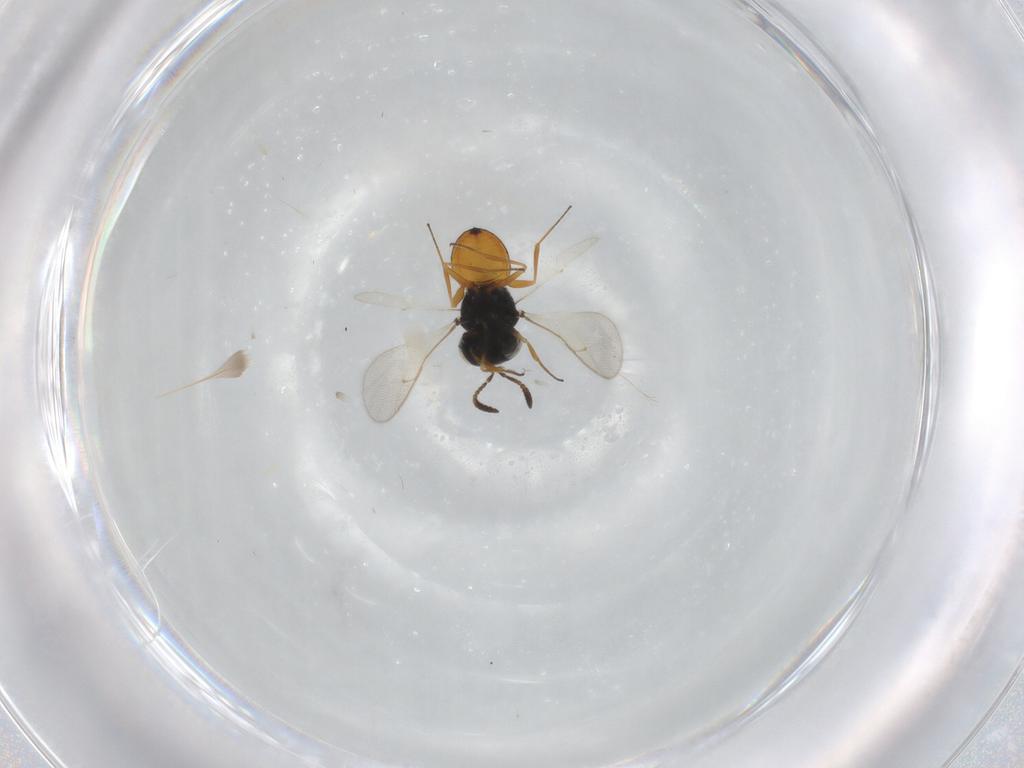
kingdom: Animalia
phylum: Arthropoda
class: Insecta
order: Hymenoptera
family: Scelionidae
